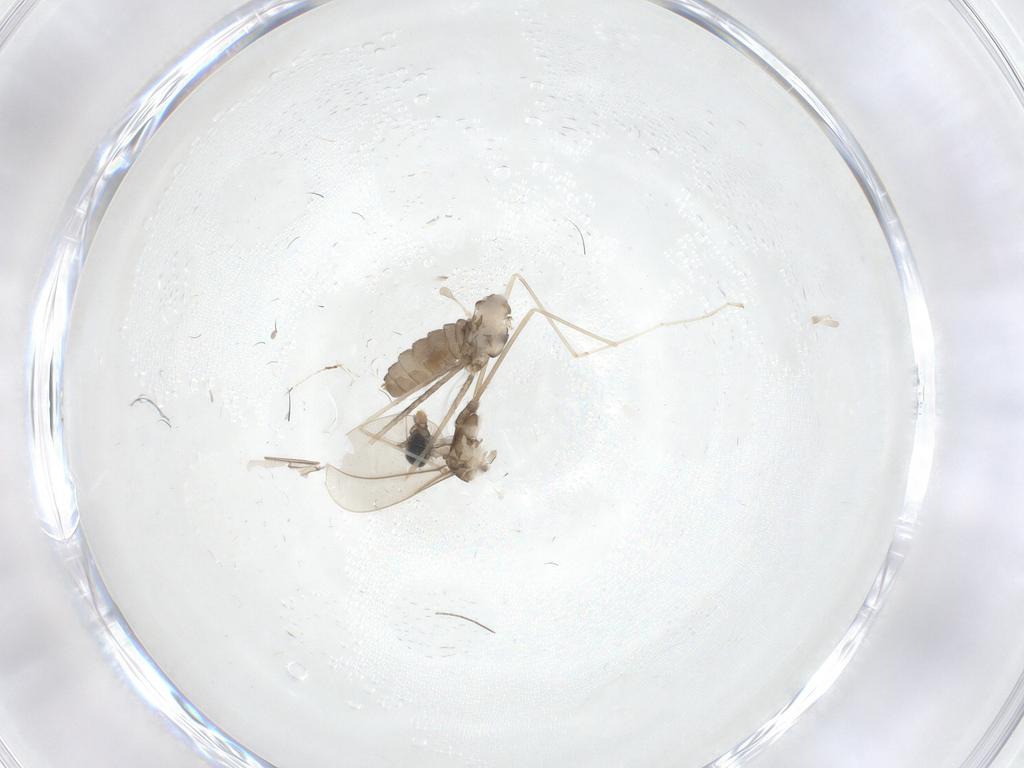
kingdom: Animalia
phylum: Arthropoda
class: Insecta
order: Diptera
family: Cecidomyiidae
